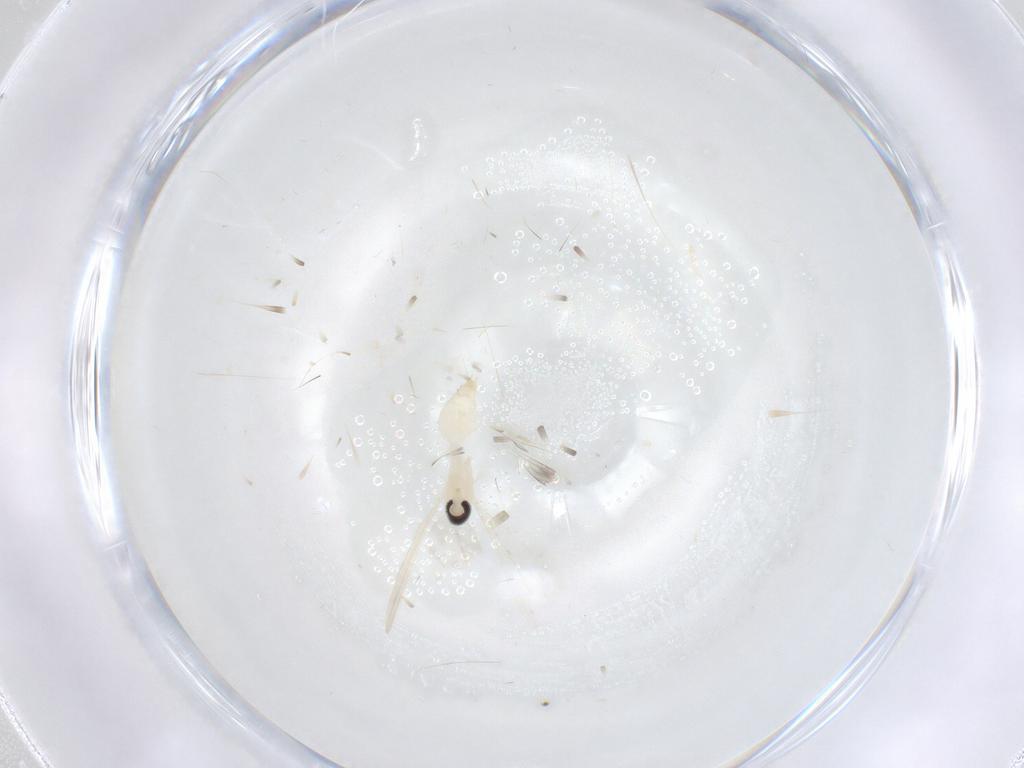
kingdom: Animalia
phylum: Arthropoda
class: Insecta
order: Diptera
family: Cecidomyiidae
